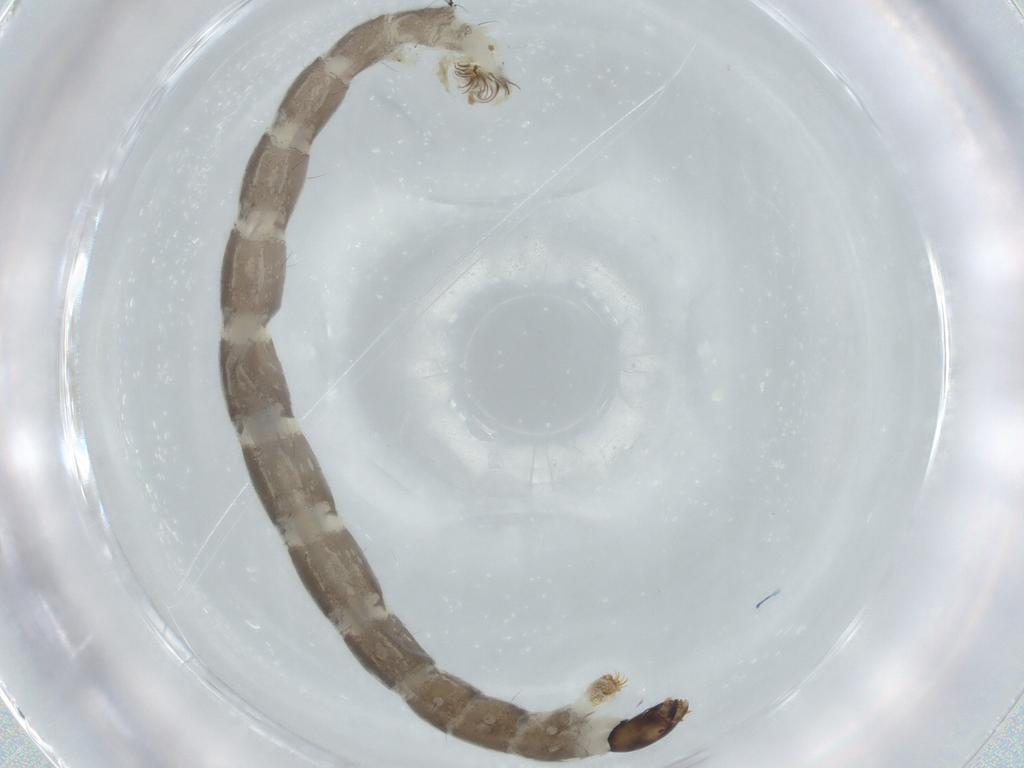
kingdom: Animalia
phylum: Arthropoda
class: Insecta
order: Diptera
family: Chironomidae
